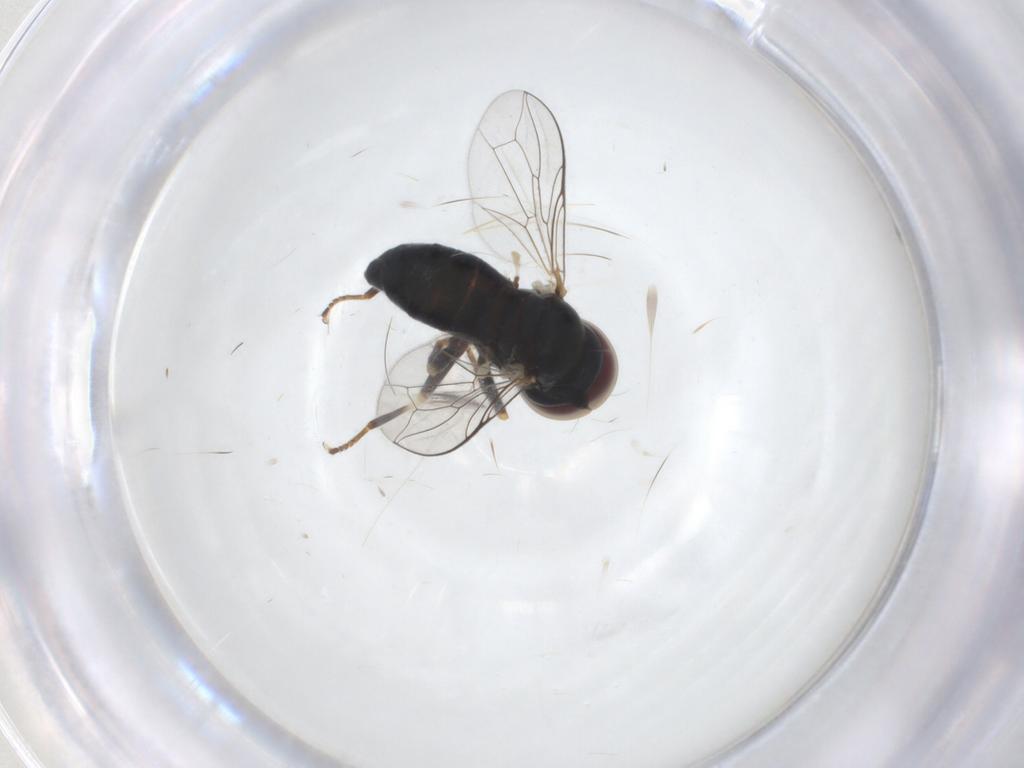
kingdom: Animalia
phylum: Arthropoda
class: Insecta
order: Diptera
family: Pipunculidae
